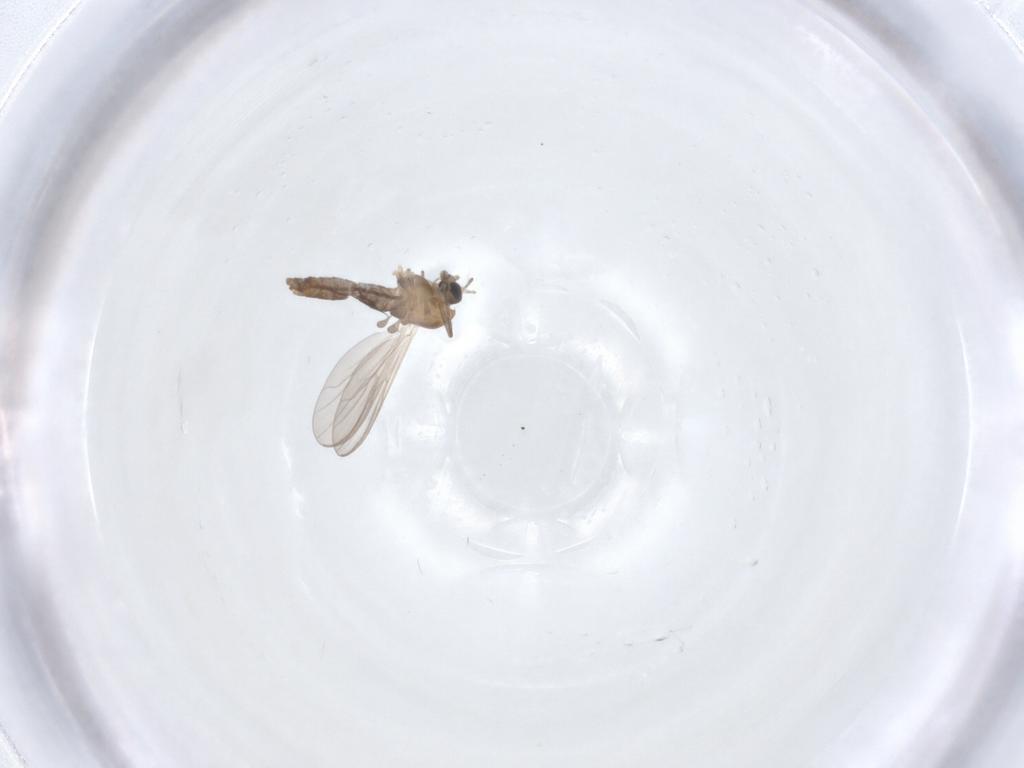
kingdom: Animalia
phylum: Arthropoda
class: Insecta
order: Diptera
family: Chironomidae
